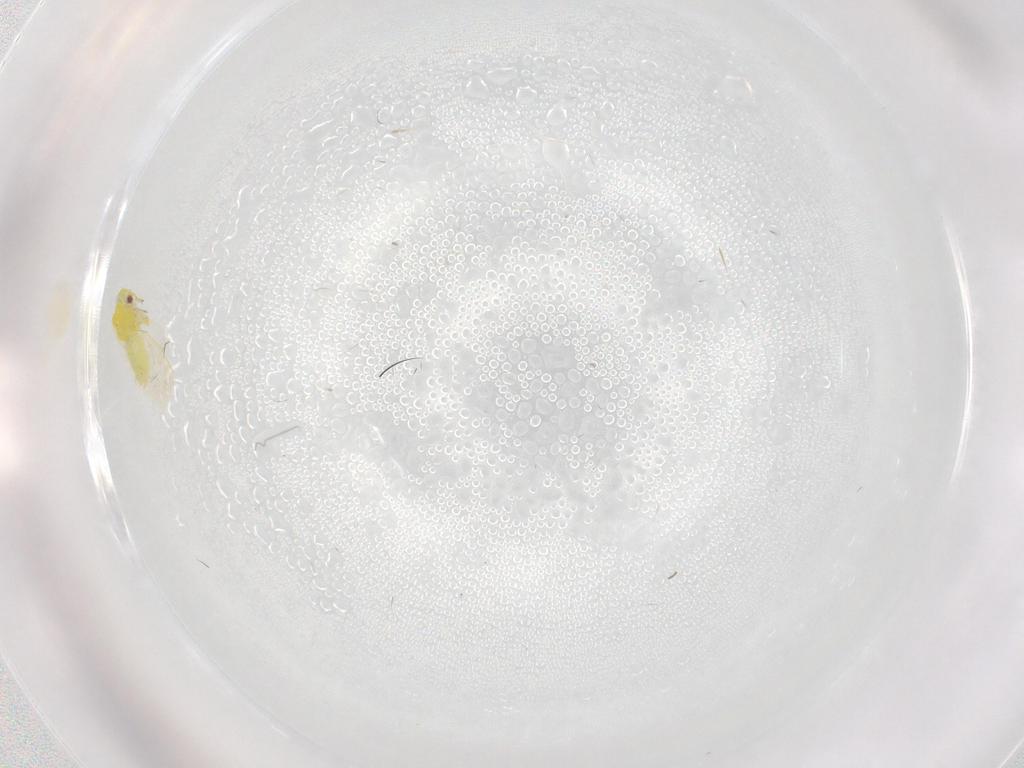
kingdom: Animalia
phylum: Arthropoda
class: Insecta
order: Hemiptera
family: Aleyrodidae
